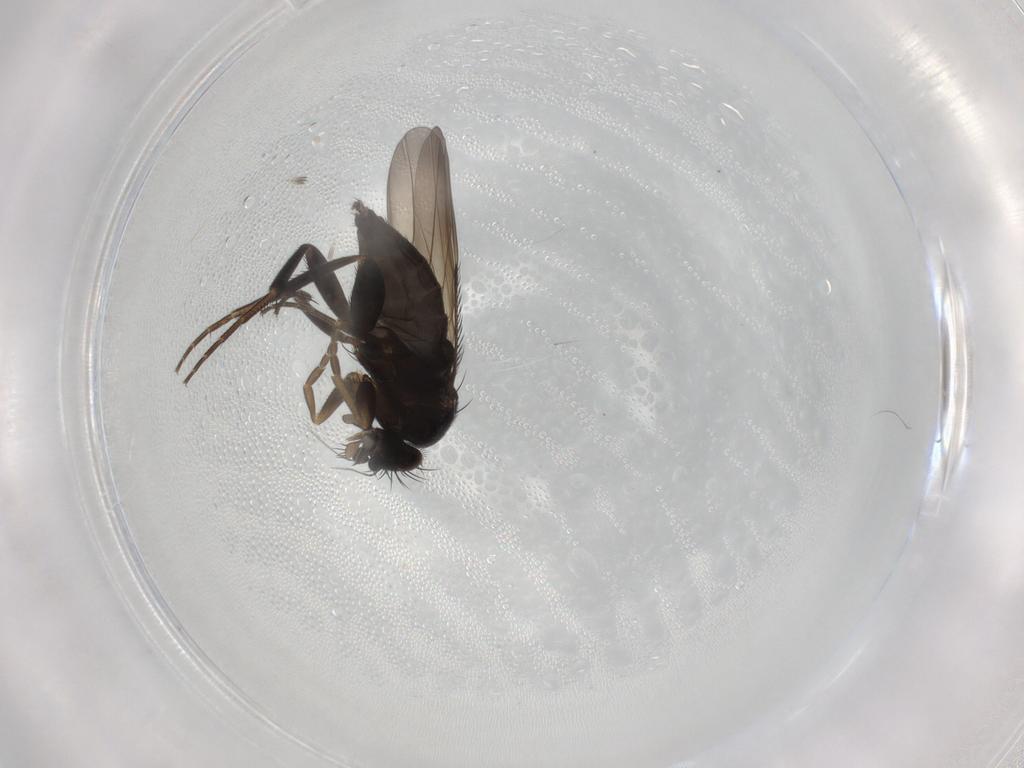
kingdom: Animalia
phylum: Arthropoda
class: Insecta
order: Diptera
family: Phoridae
